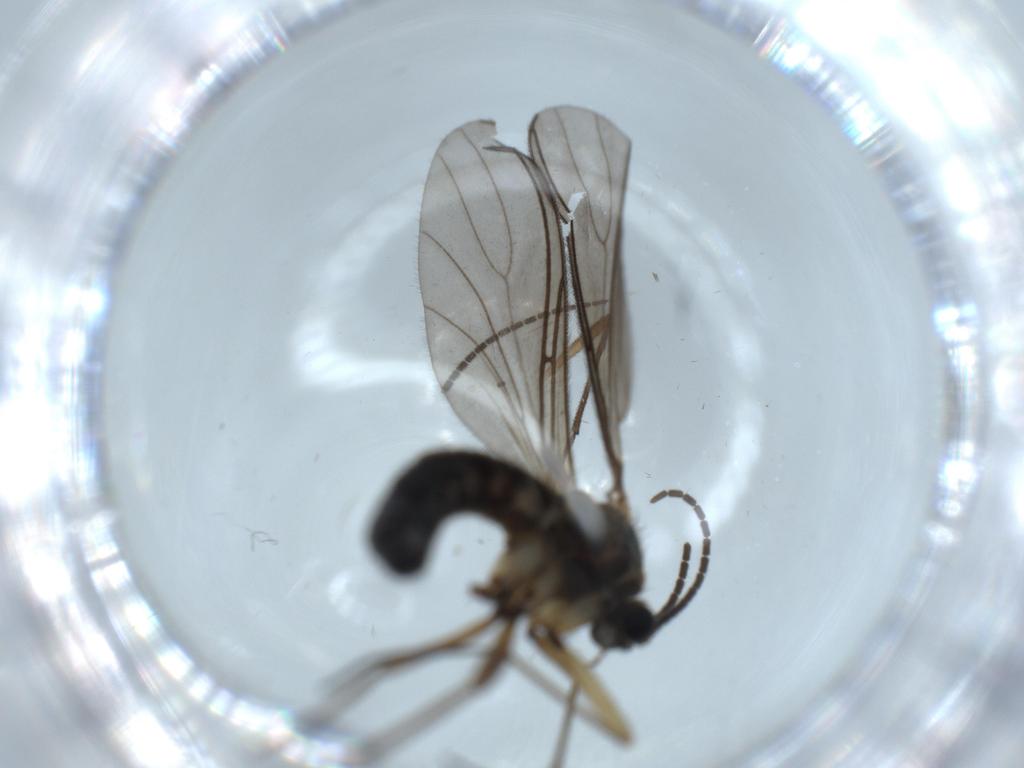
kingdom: Animalia
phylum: Arthropoda
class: Insecta
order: Diptera
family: Sciaridae
